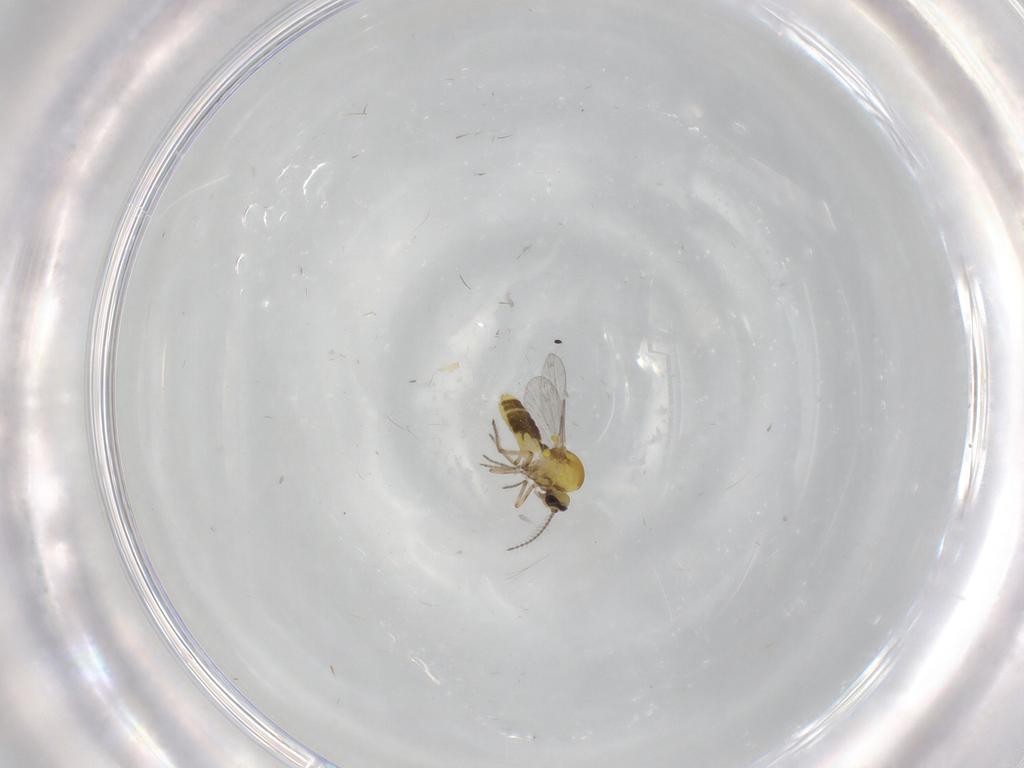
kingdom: Animalia
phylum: Arthropoda
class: Insecta
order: Diptera
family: Ceratopogonidae
